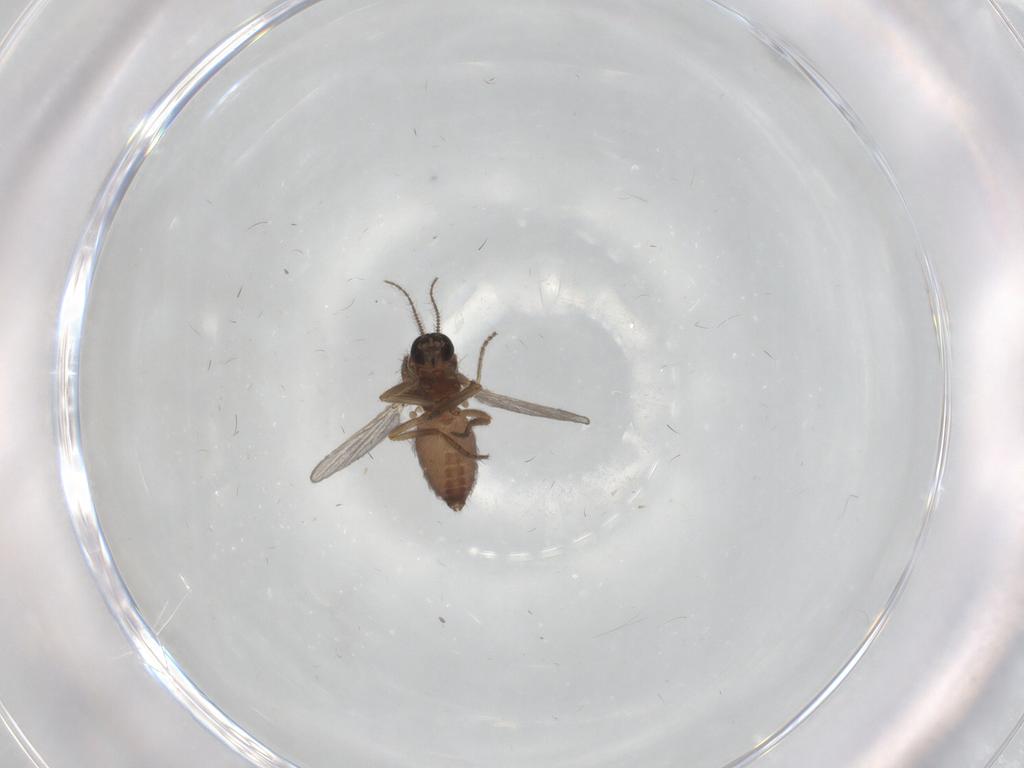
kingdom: Animalia
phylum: Arthropoda
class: Insecta
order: Diptera
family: Ceratopogonidae
